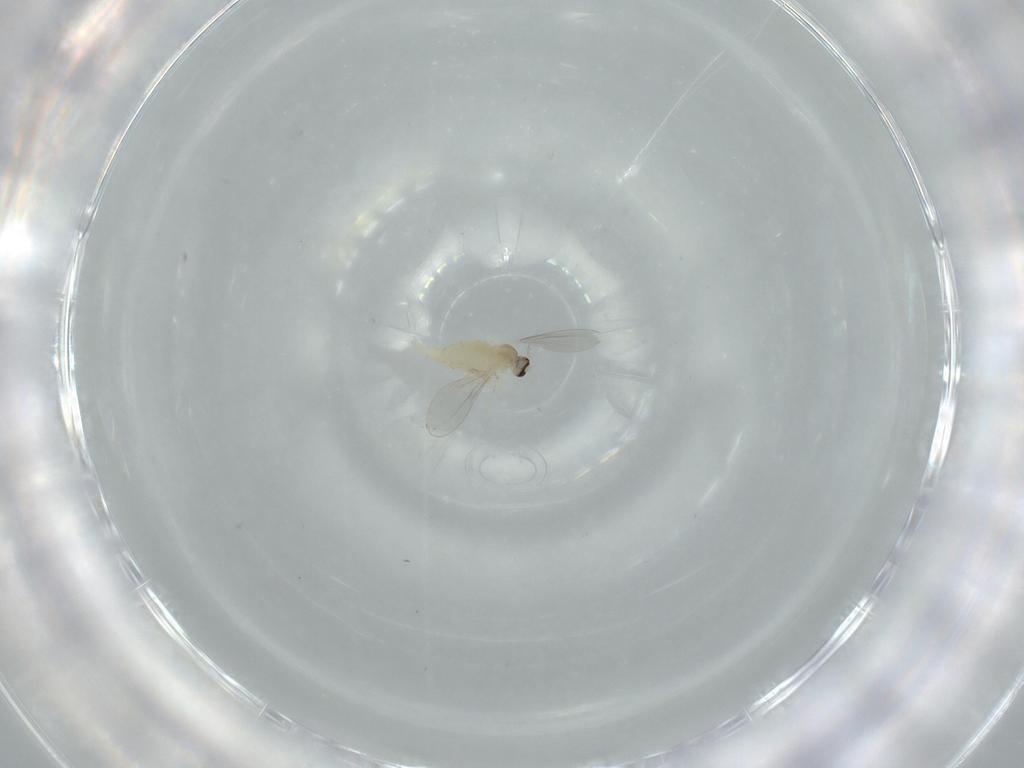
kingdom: Animalia
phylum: Arthropoda
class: Insecta
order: Diptera
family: Cecidomyiidae
